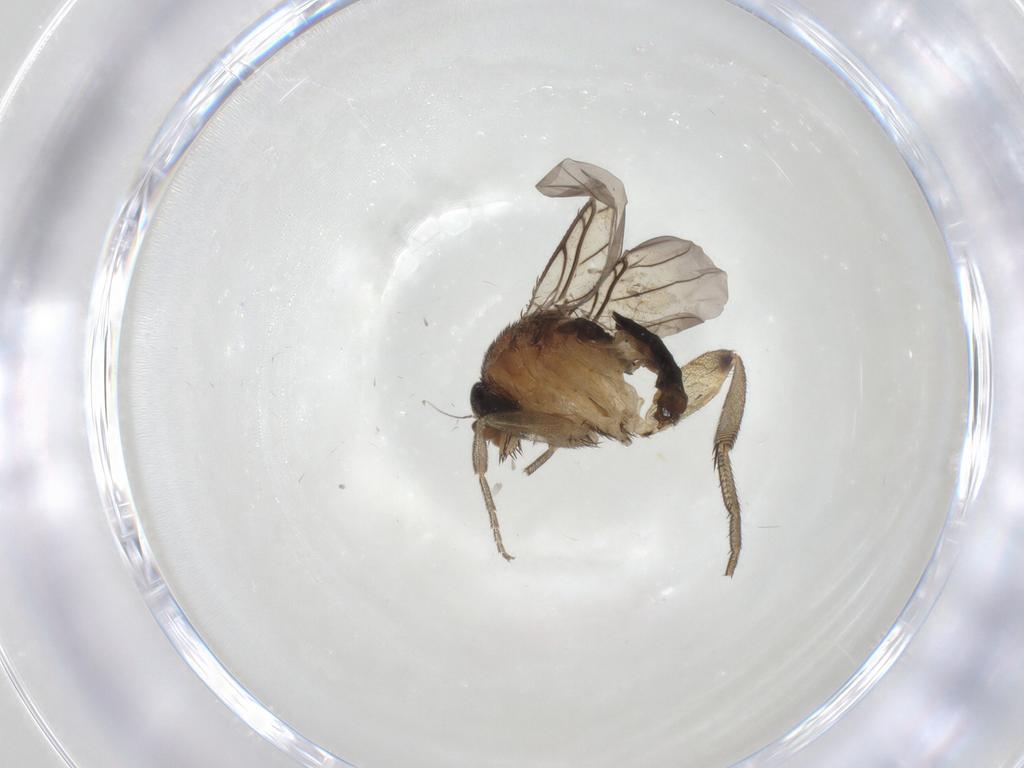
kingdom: Animalia
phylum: Arthropoda
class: Insecta
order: Diptera
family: Phoridae
